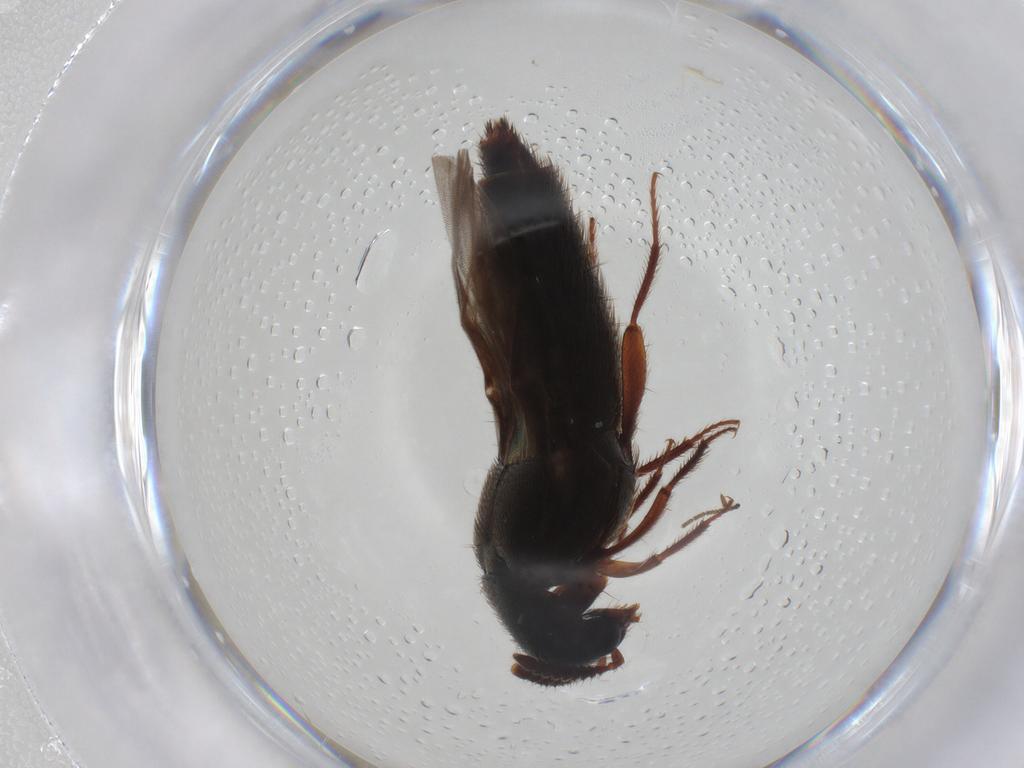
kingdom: Animalia
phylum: Arthropoda
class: Insecta
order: Coleoptera
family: Staphylinidae
